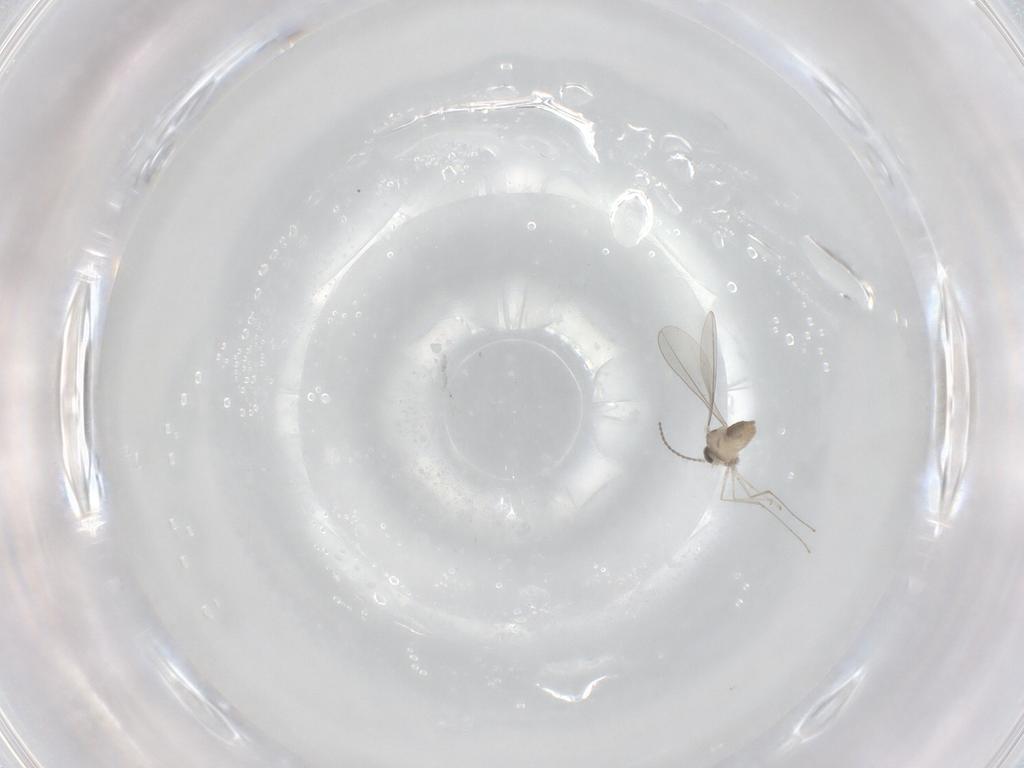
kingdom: Animalia
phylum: Arthropoda
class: Insecta
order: Diptera
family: Cecidomyiidae
